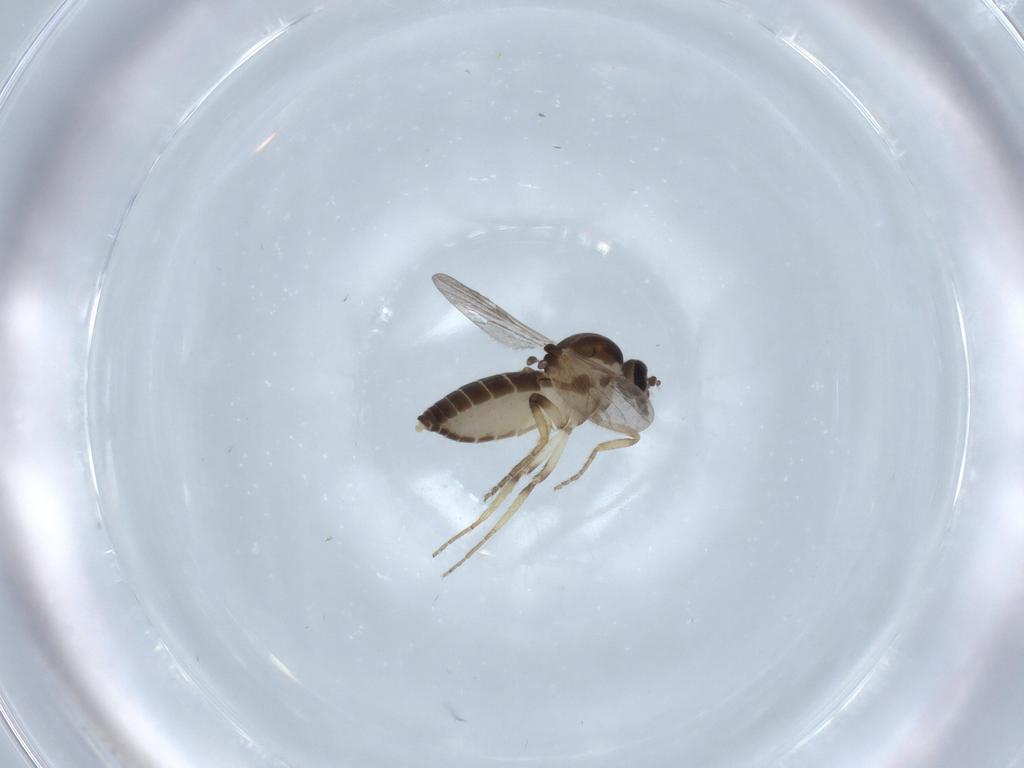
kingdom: Animalia
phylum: Arthropoda
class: Insecta
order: Diptera
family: Ceratopogonidae
